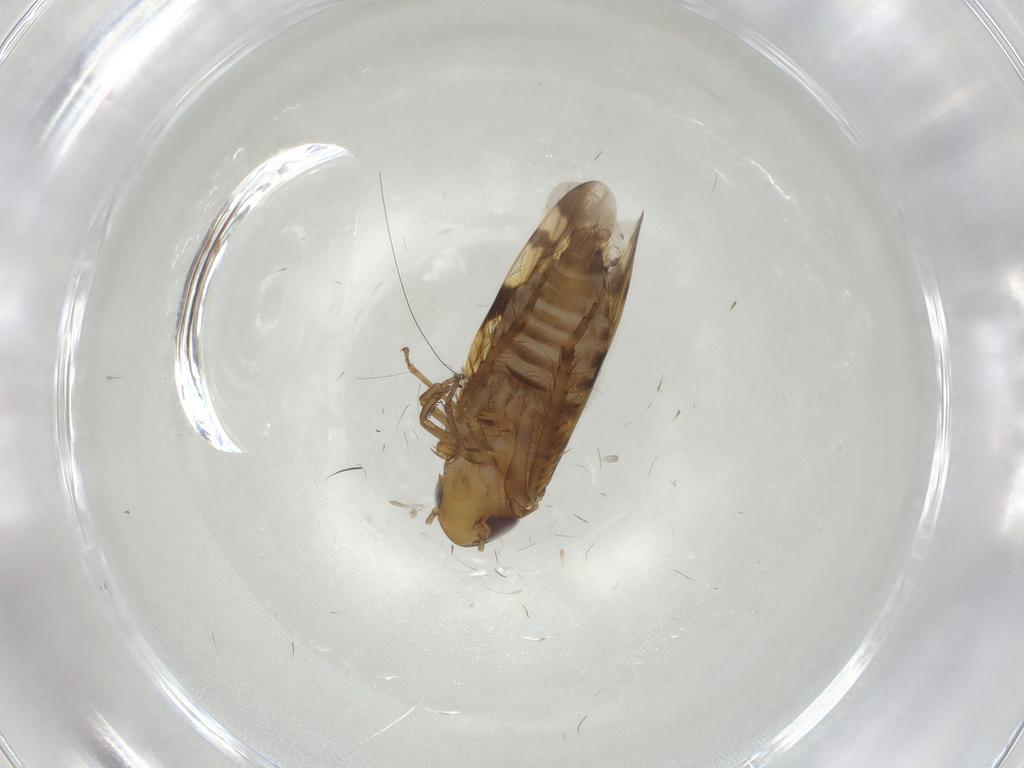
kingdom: Animalia
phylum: Arthropoda
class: Insecta
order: Hemiptera
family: Cicadellidae
